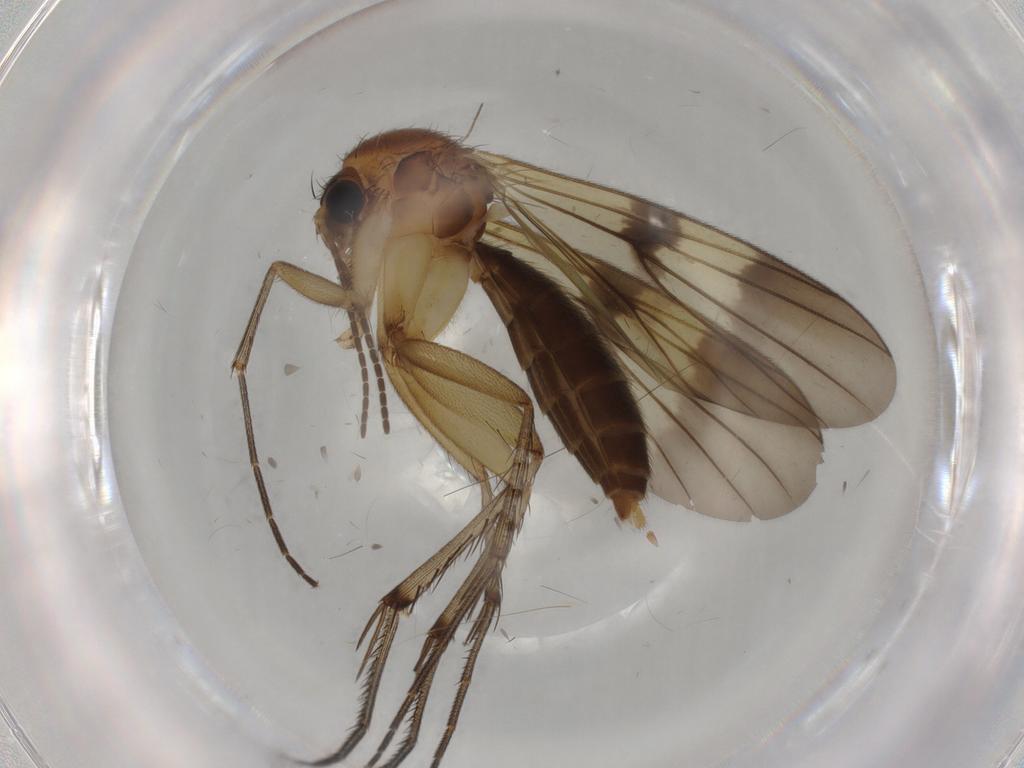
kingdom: Animalia
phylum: Arthropoda
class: Insecta
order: Diptera
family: Mycetophilidae
